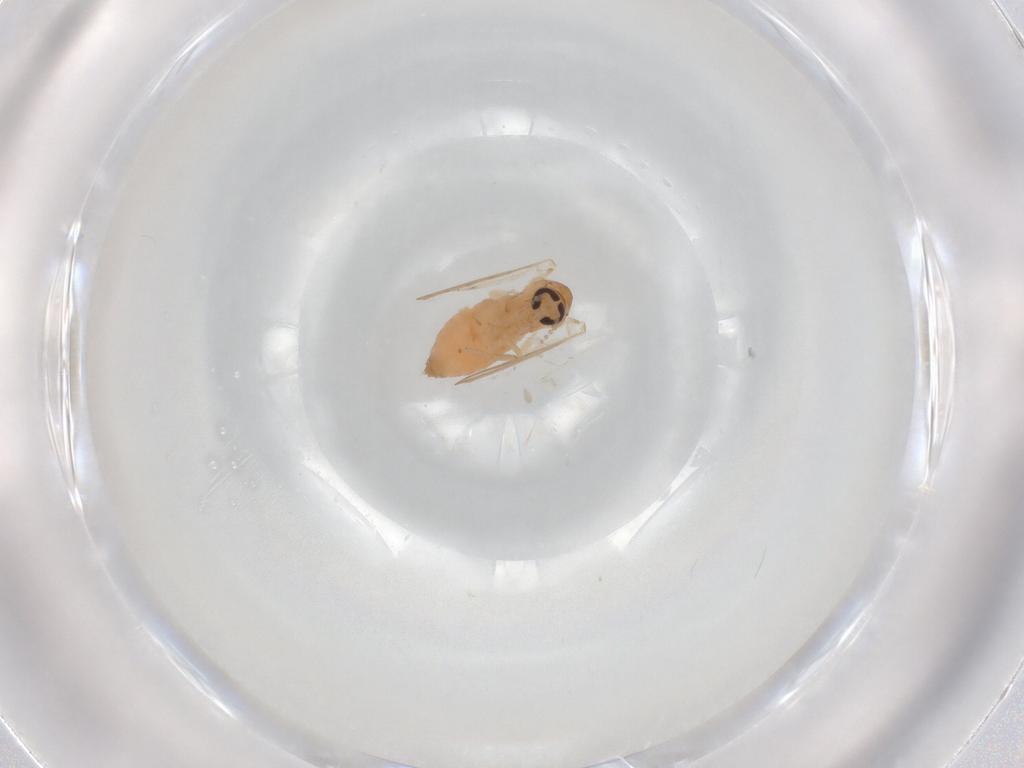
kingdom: Animalia
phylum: Arthropoda
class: Insecta
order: Diptera
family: Psychodidae
